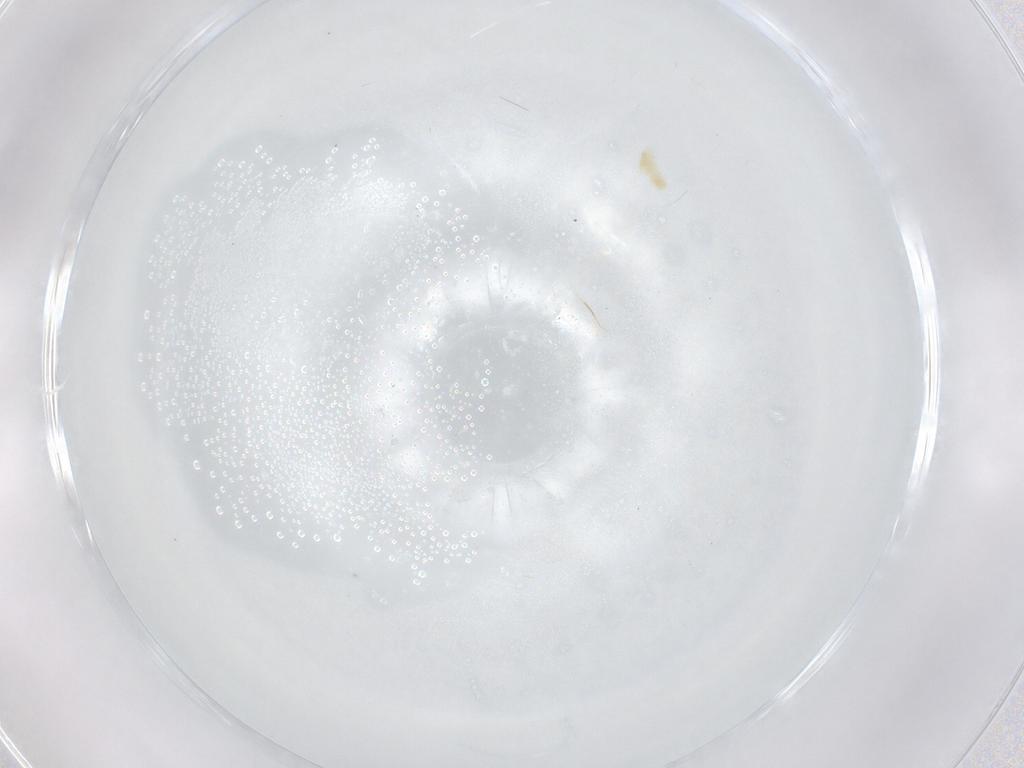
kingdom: Animalia
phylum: Arthropoda
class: Arachnida
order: Trombidiformes
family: Eupodidae
